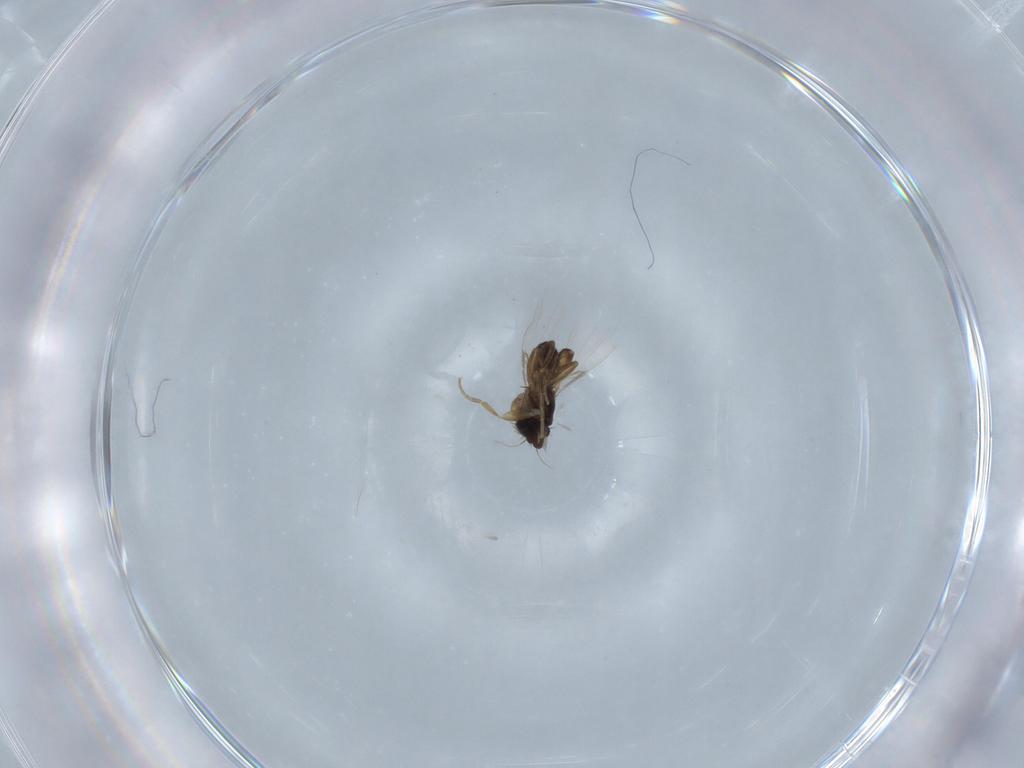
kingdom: Animalia
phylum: Arthropoda
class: Insecta
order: Diptera
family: Phoridae
